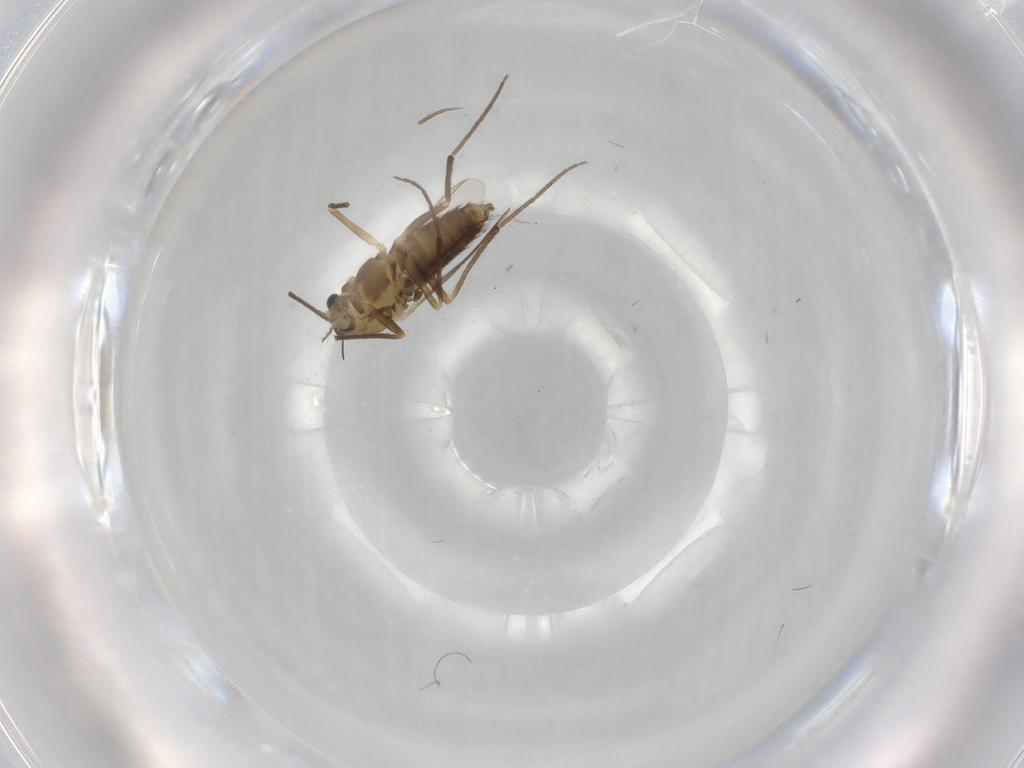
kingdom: Animalia
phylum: Arthropoda
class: Insecta
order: Diptera
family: Chironomidae
